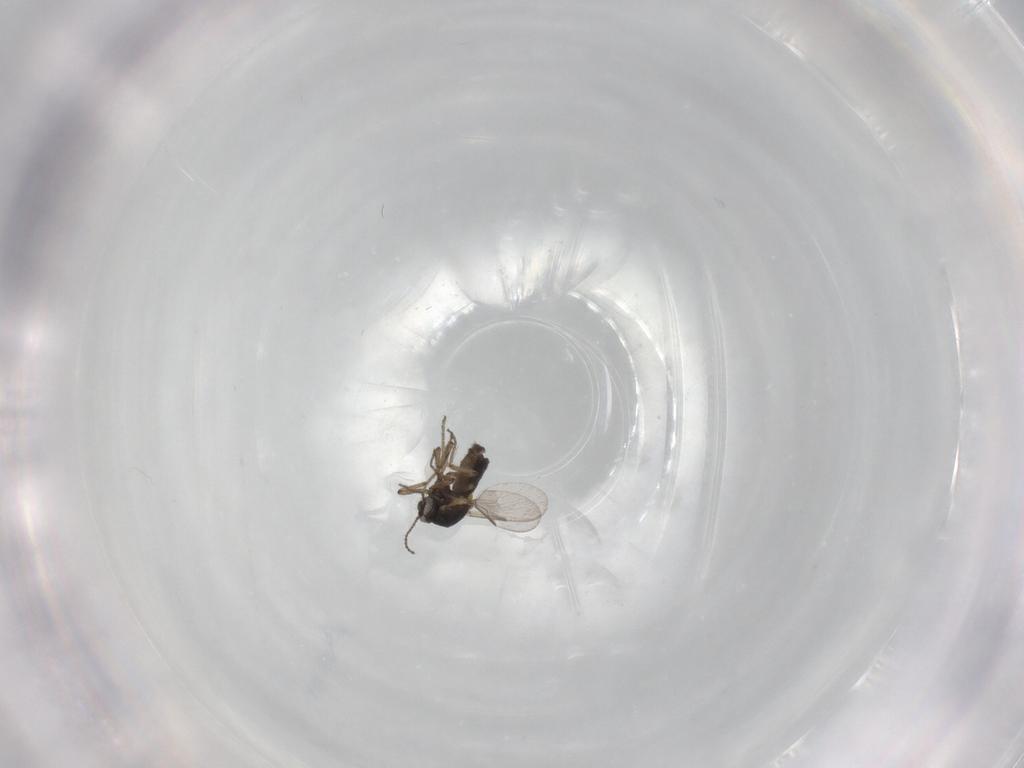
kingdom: Animalia
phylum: Arthropoda
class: Insecta
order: Diptera
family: Ceratopogonidae
